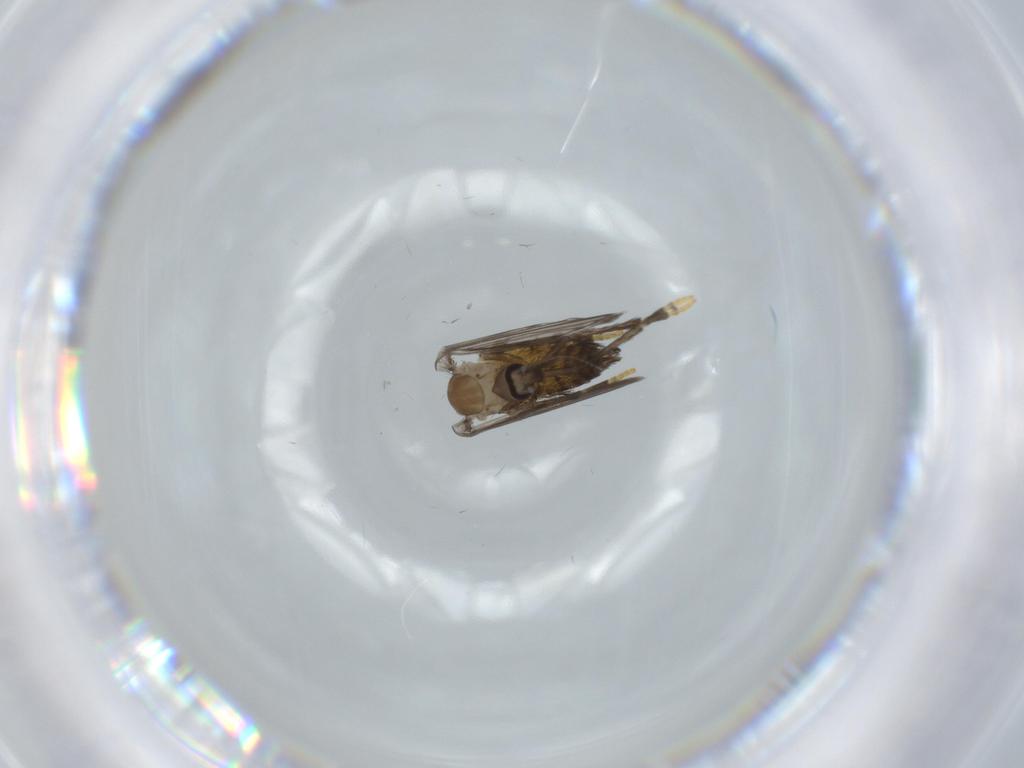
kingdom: Animalia
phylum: Arthropoda
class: Insecta
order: Diptera
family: Psychodidae
